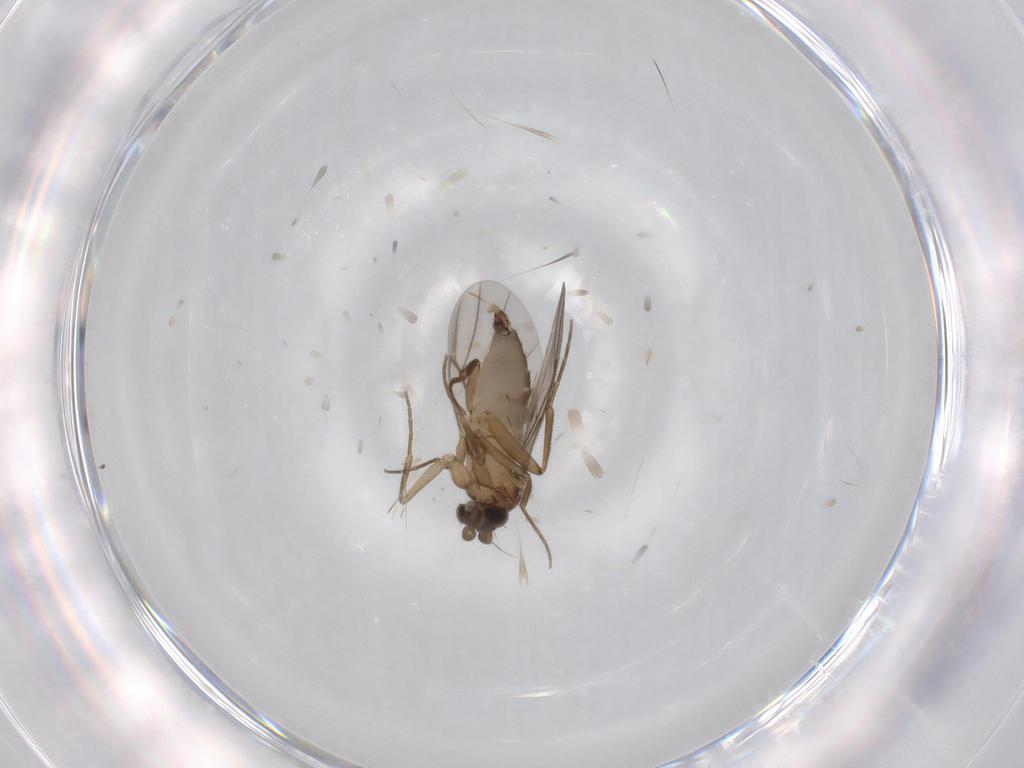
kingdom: Animalia
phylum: Arthropoda
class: Insecta
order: Diptera
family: Phoridae
